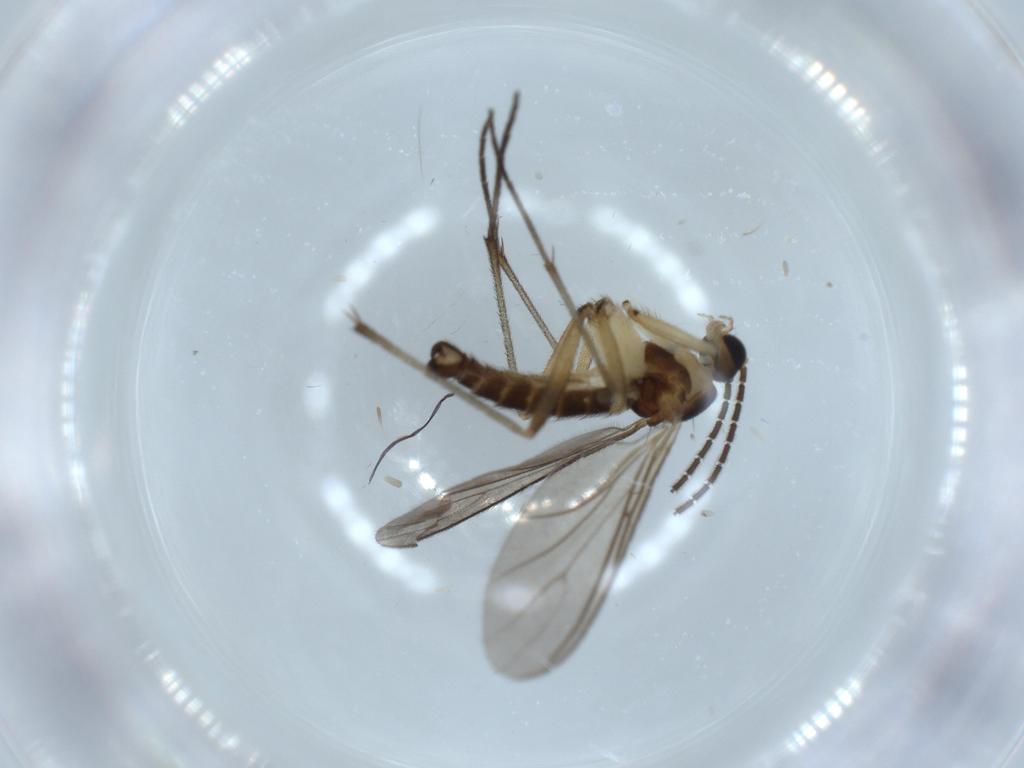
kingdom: Animalia
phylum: Arthropoda
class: Insecta
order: Diptera
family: Sciaridae
